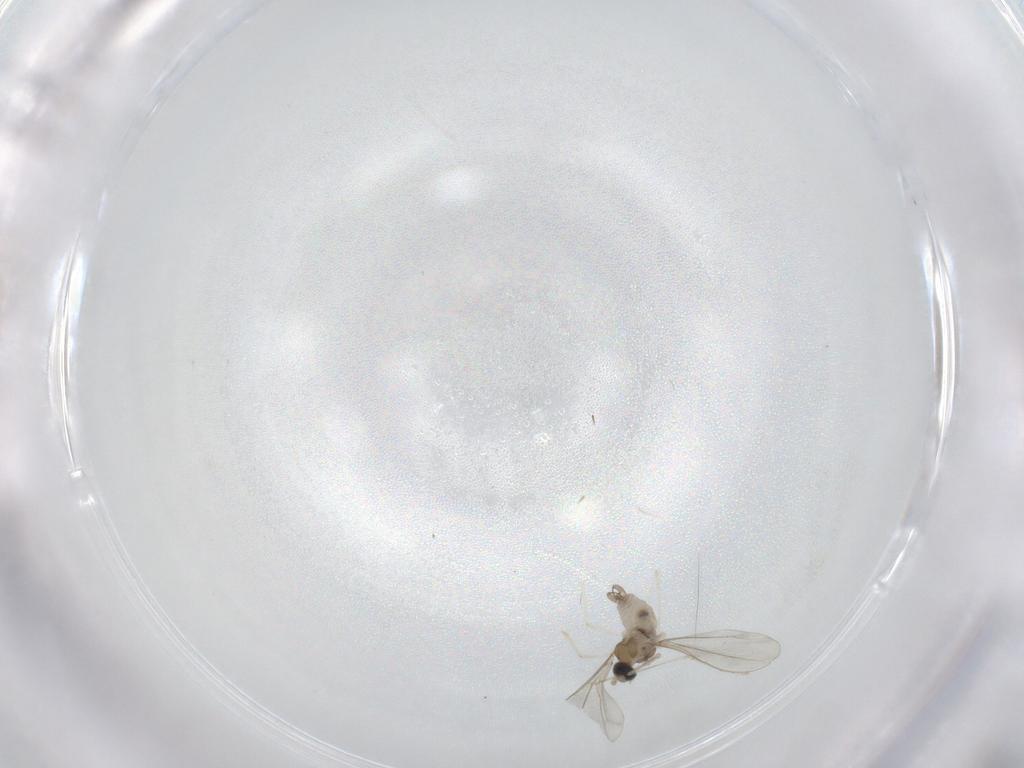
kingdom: Animalia
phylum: Arthropoda
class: Insecta
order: Diptera
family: Cecidomyiidae
